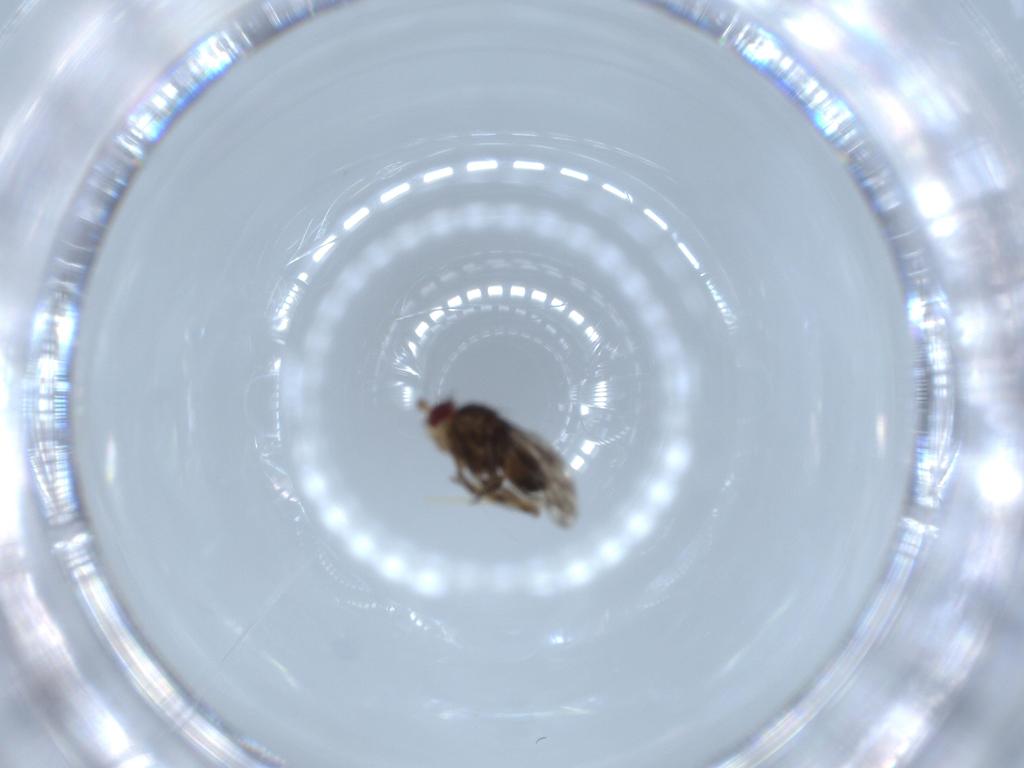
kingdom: Animalia
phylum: Arthropoda
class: Insecta
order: Diptera
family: Sphaeroceridae
